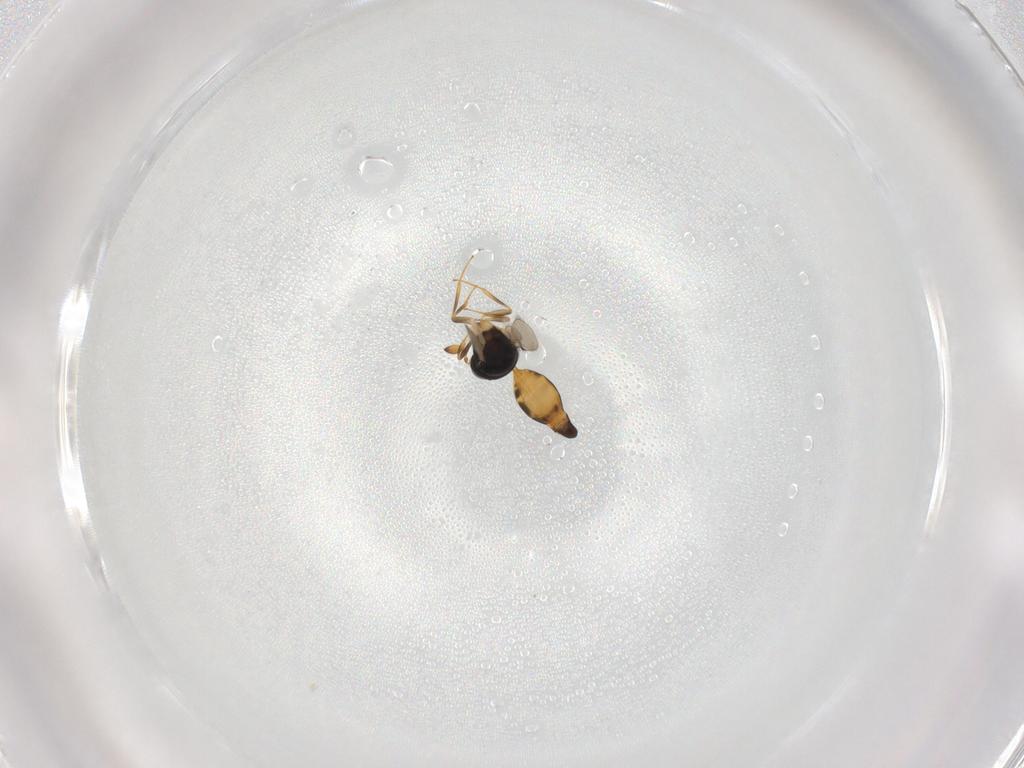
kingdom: Animalia
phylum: Arthropoda
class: Insecta
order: Hymenoptera
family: Scelionidae
